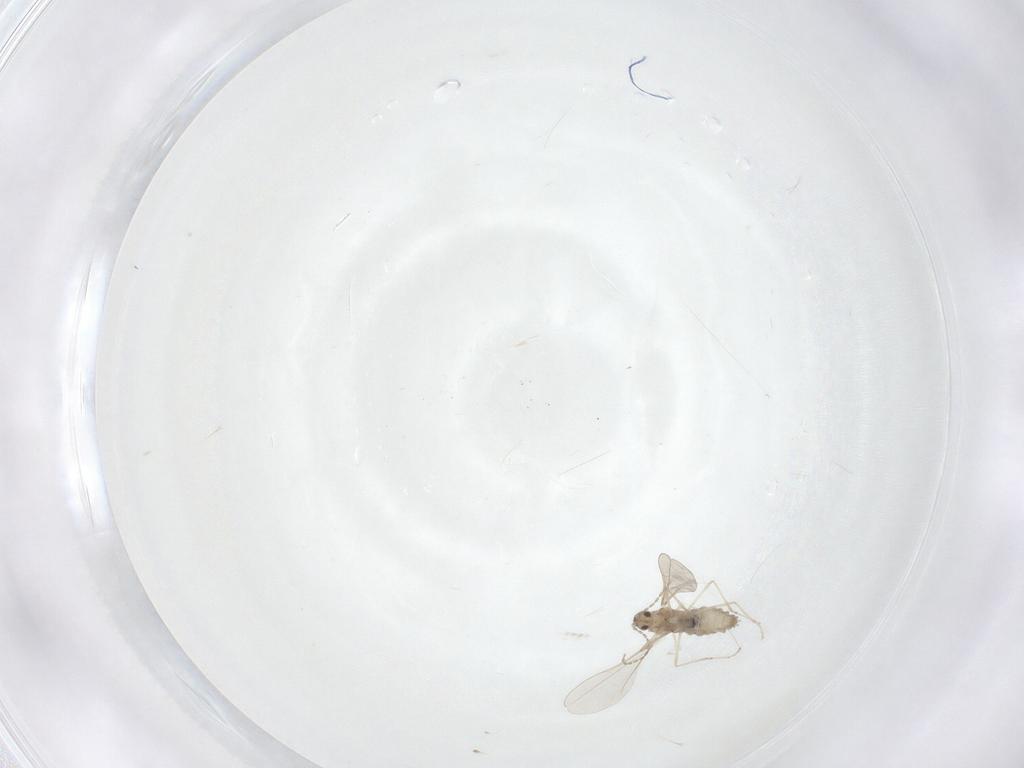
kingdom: Animalia
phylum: Arthropoda
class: Insecta
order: Diptera
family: Cecidomyiidae
